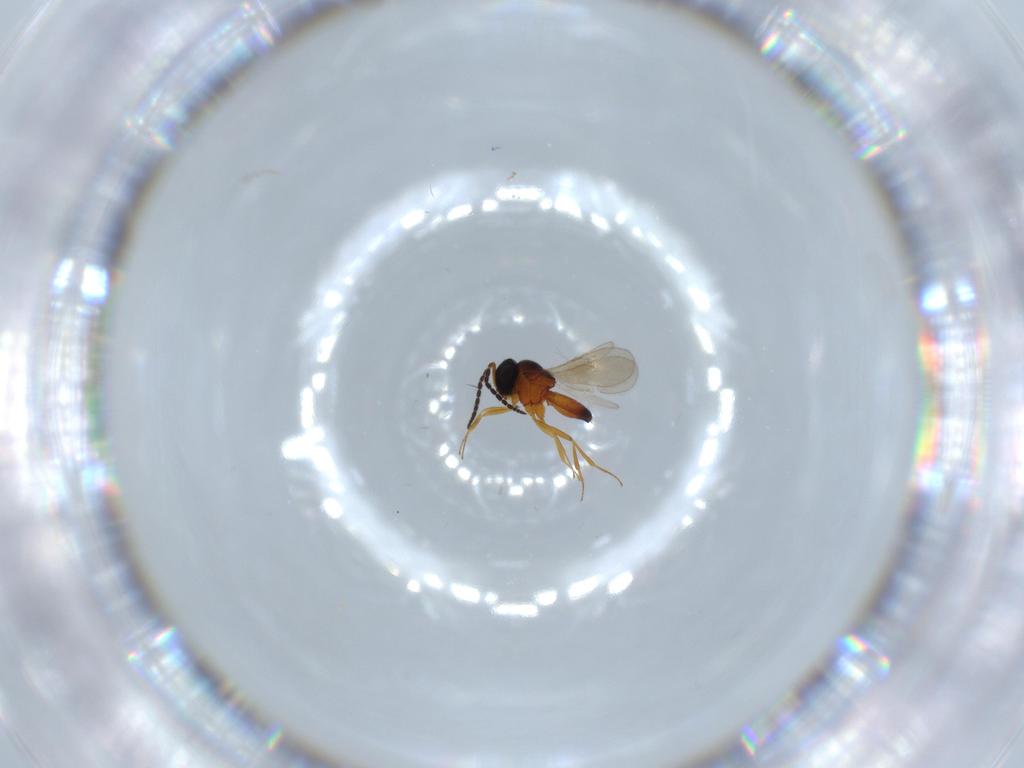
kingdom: Animalia
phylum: Arthropoda
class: Insecta
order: Hymenoptera
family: Scelionidae
